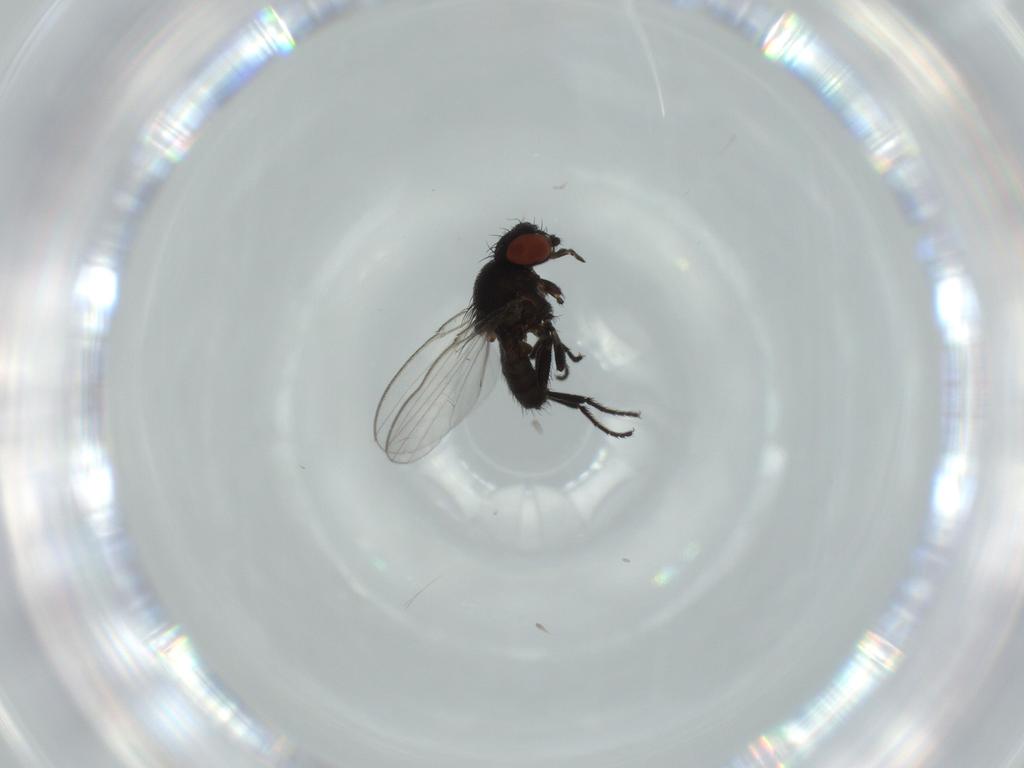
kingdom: Animalia
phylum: Arthropoda
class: Insecta
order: Diptera
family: Milichiidae
